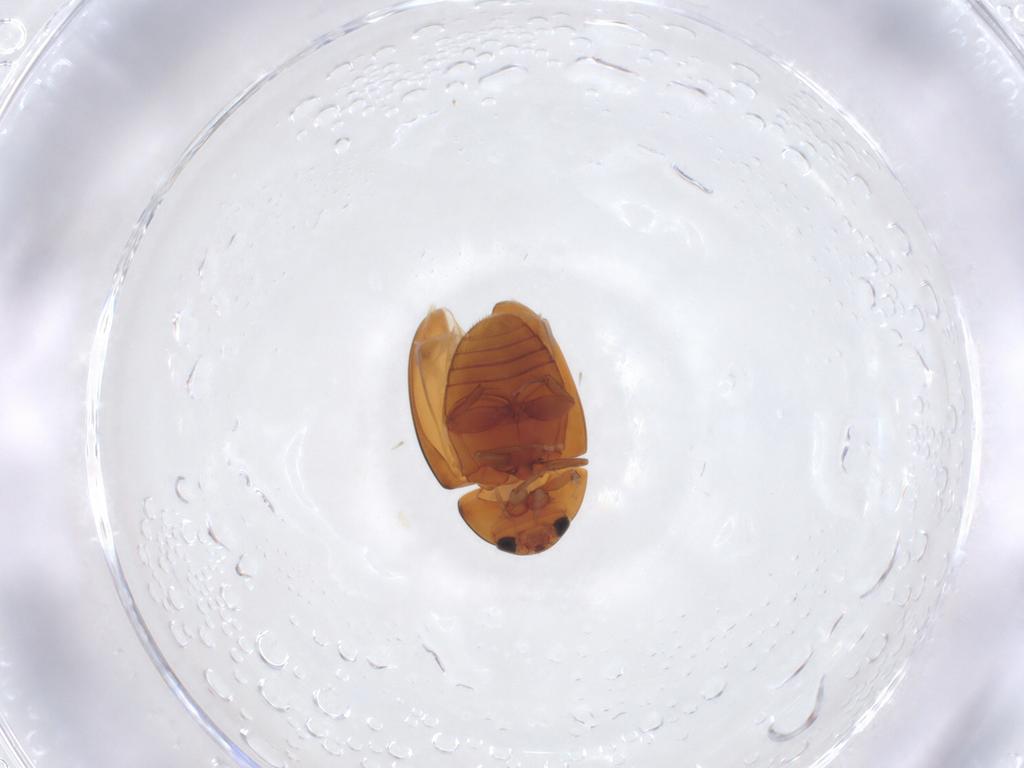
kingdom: Animalia
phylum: Arthropoda
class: Insecta
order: Coleoptera
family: Phalacridae
